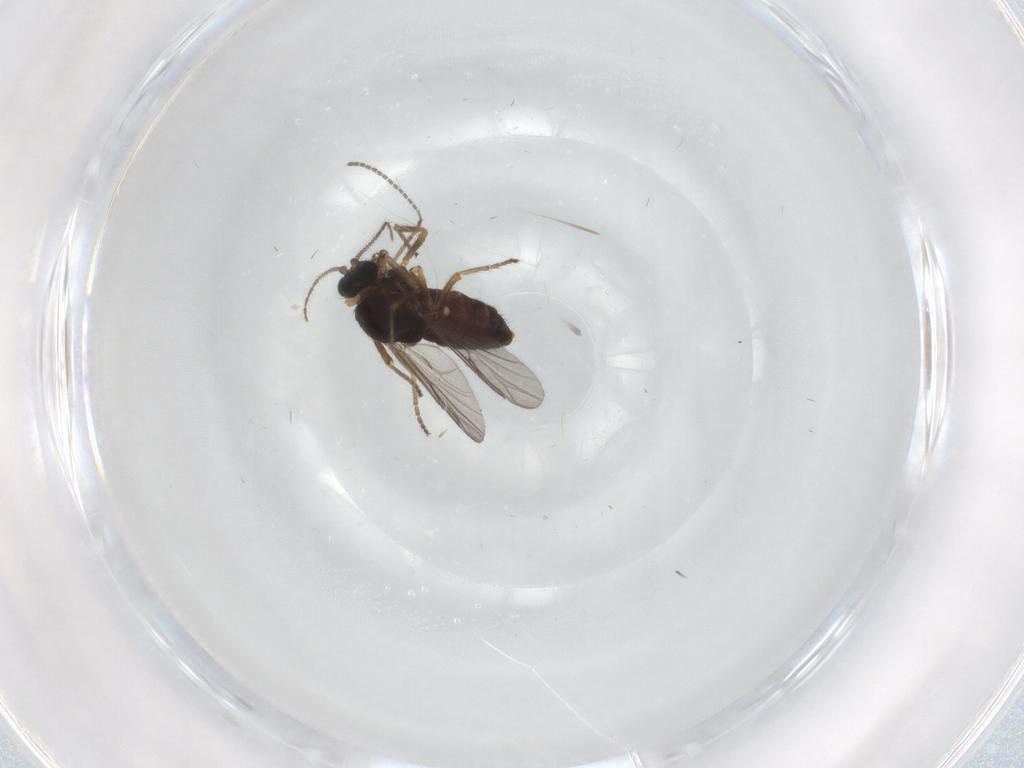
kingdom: Animalia
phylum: Arthropoda
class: Insecta
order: Diptera
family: Ceratopogonidae
